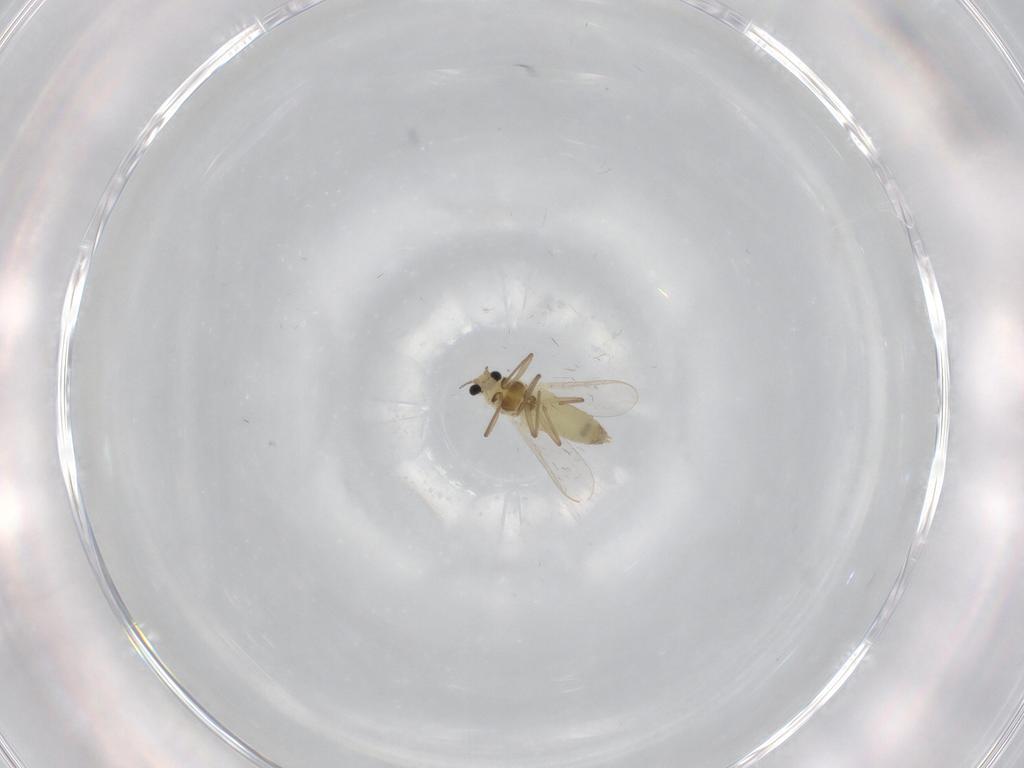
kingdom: Animalia
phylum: Arthropoda
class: Insecta
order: Diptera
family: Chironomidae
